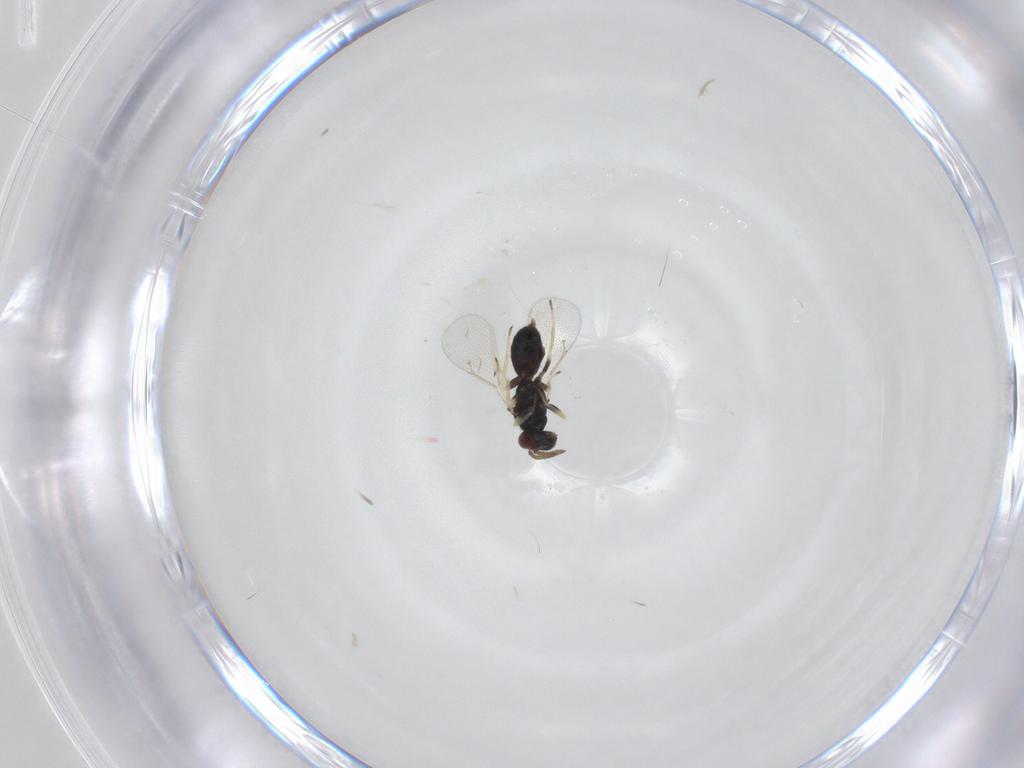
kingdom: Animalia
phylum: Arthropoda
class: Insecta
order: Hymenoptera
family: Eulophidae
